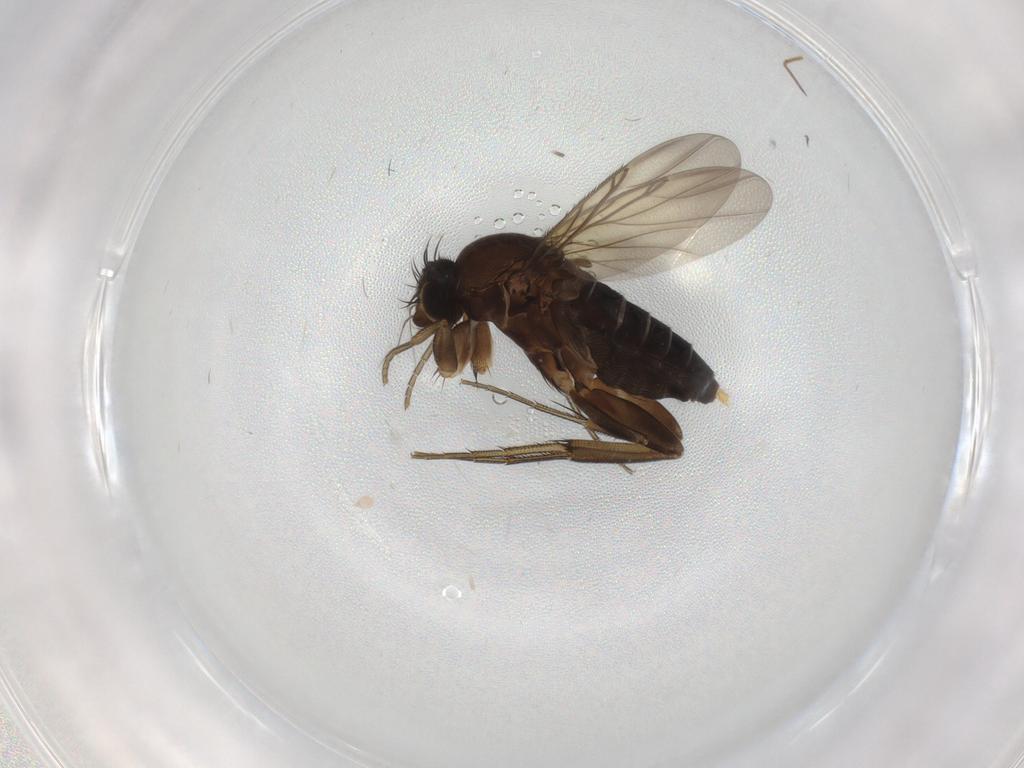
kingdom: Animalia
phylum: Arthropoda
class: Insecta
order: Diptera
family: Phoridae
